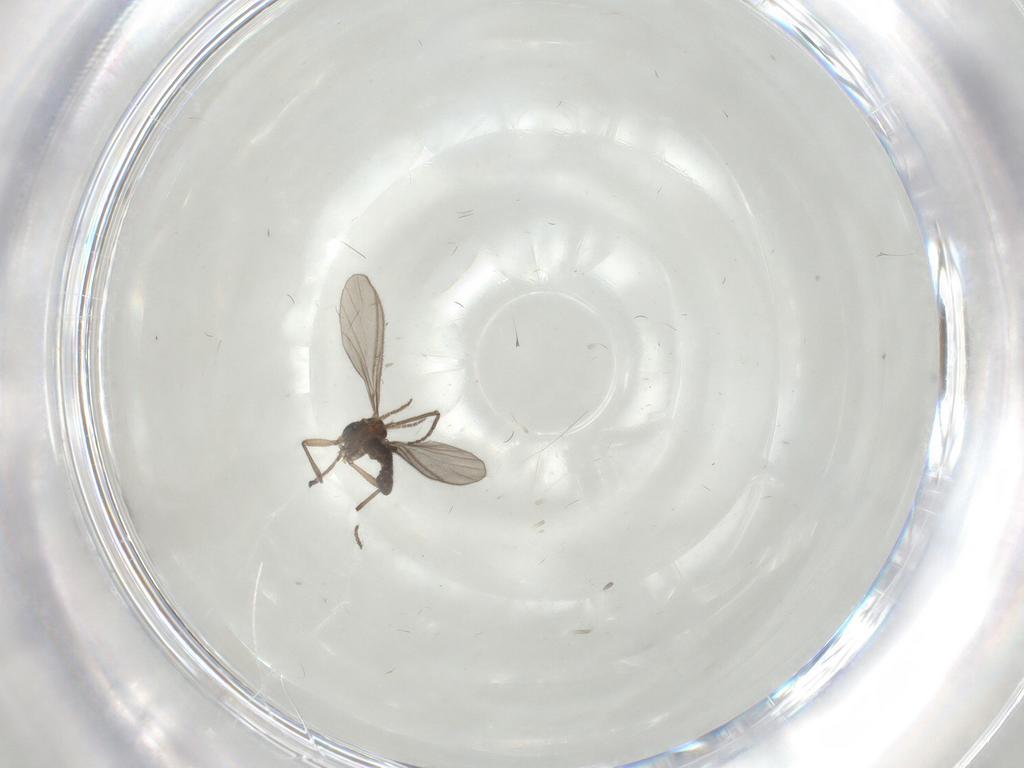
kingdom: Animalia
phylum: Arthropoda
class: Insecta
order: Diptera
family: Sciaridae
